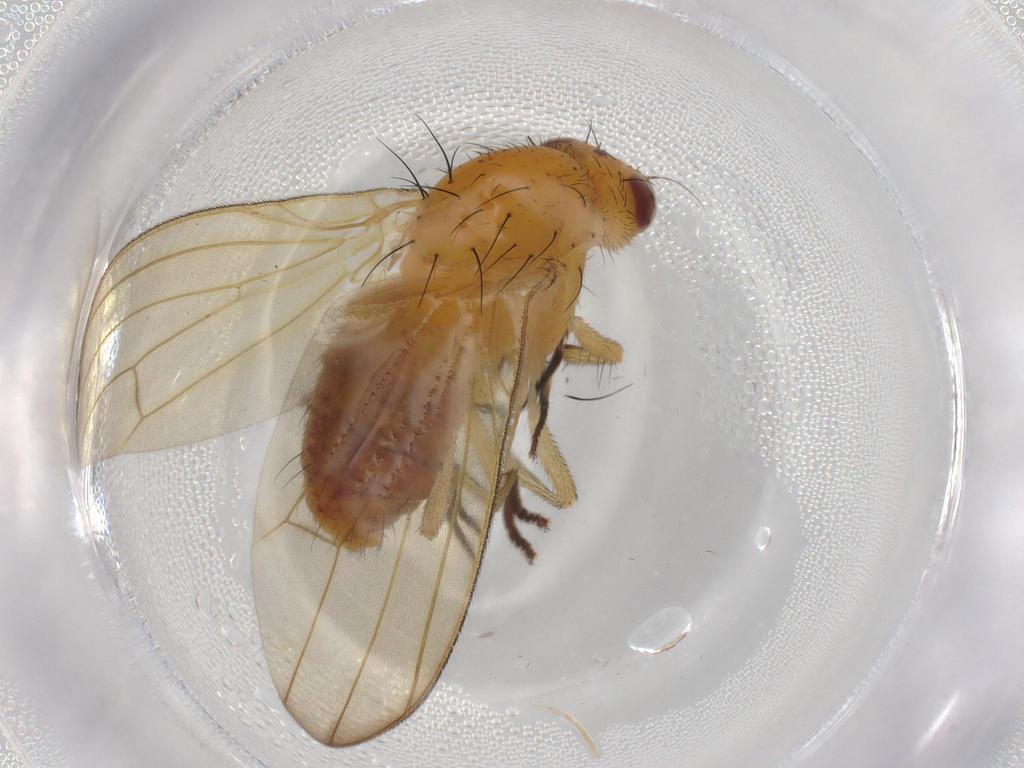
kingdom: Animalia
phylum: Arthropoda
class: Insecta
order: Diptera
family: Lauxaniidae
